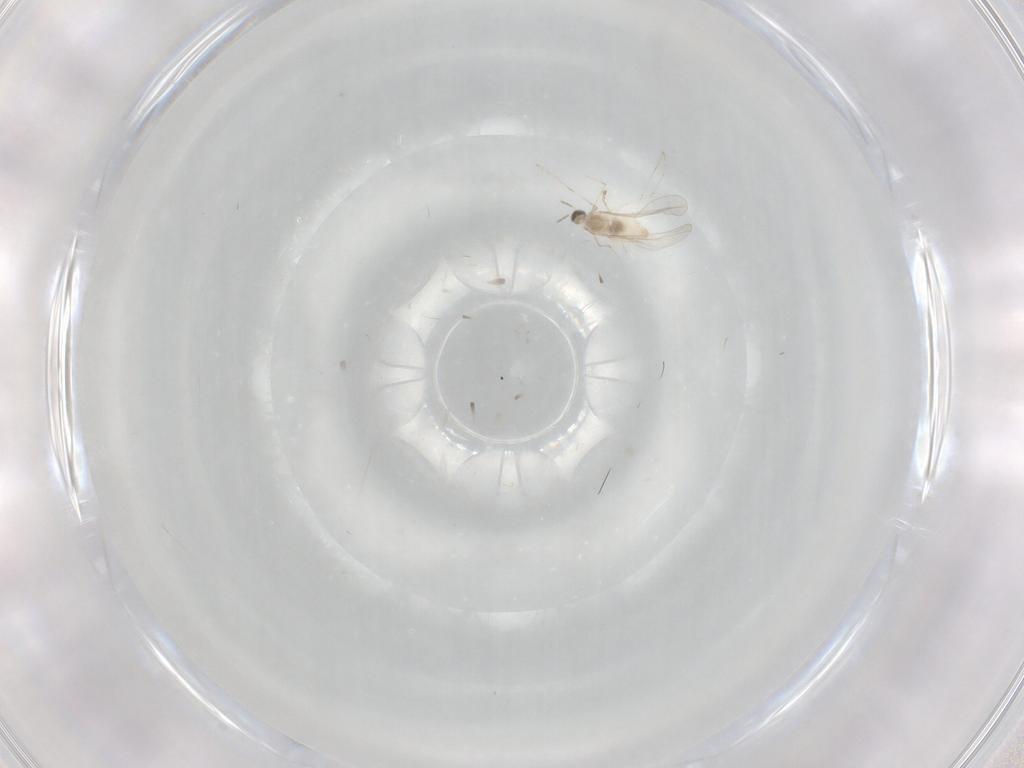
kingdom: Animalia
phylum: Arthropoda
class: Insecta
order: Diptera
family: Cecidomyiidae
